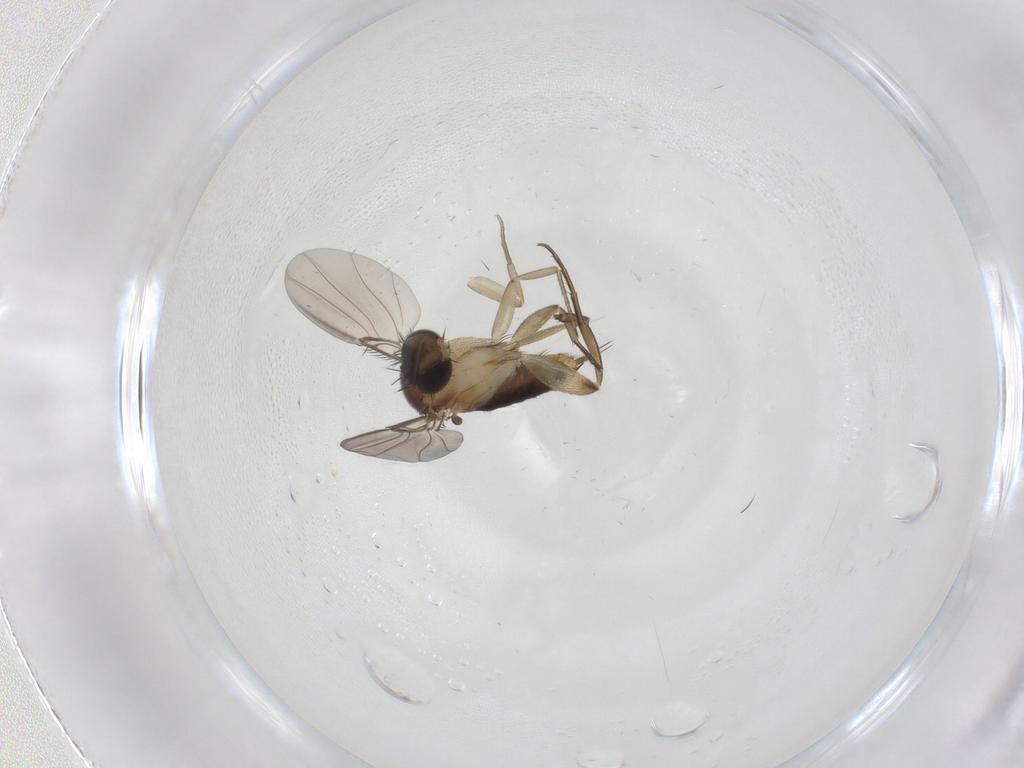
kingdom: Animalia
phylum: Arthropoda
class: Insecta
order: Diptera
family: Phoridae
